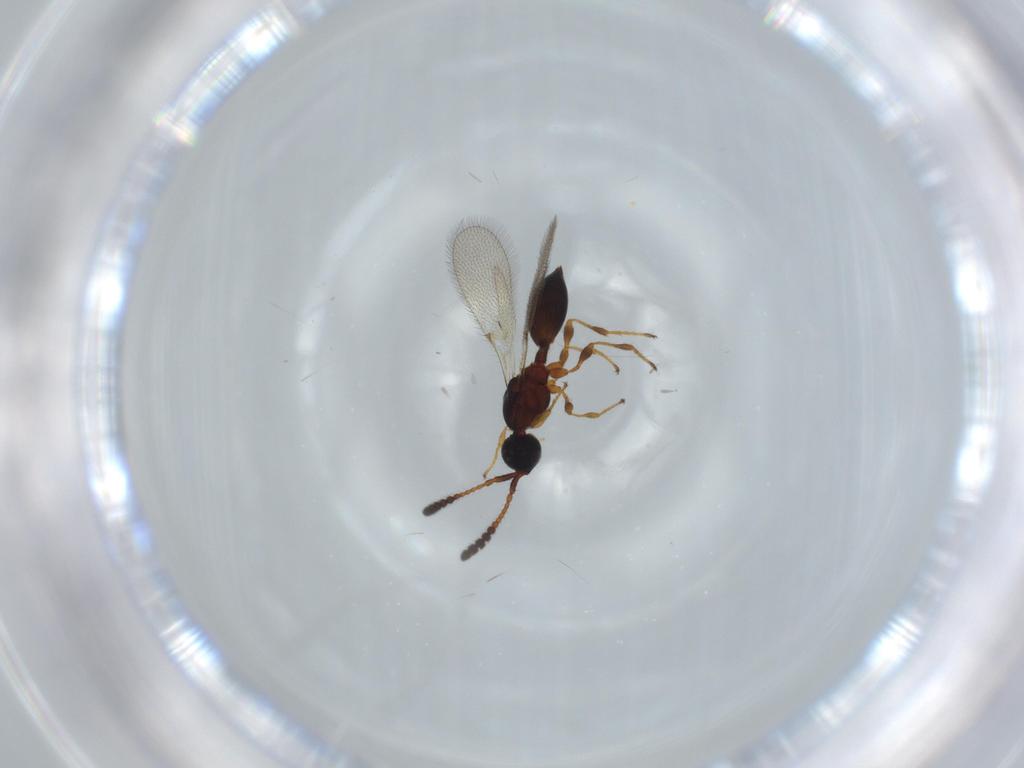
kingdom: Animalia
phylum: Arthropoda
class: Insecta
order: Hymenoptera
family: Diapriidae
